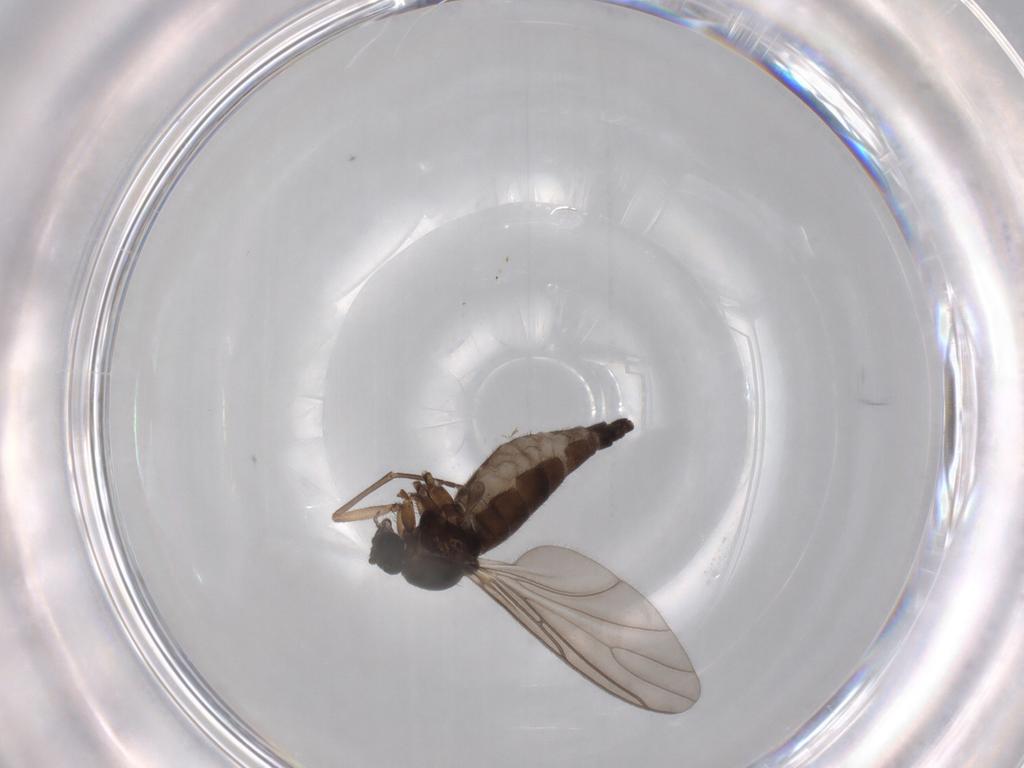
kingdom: Animalia
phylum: Arthropoda
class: Insecta
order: Diptera
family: Sciaridae
